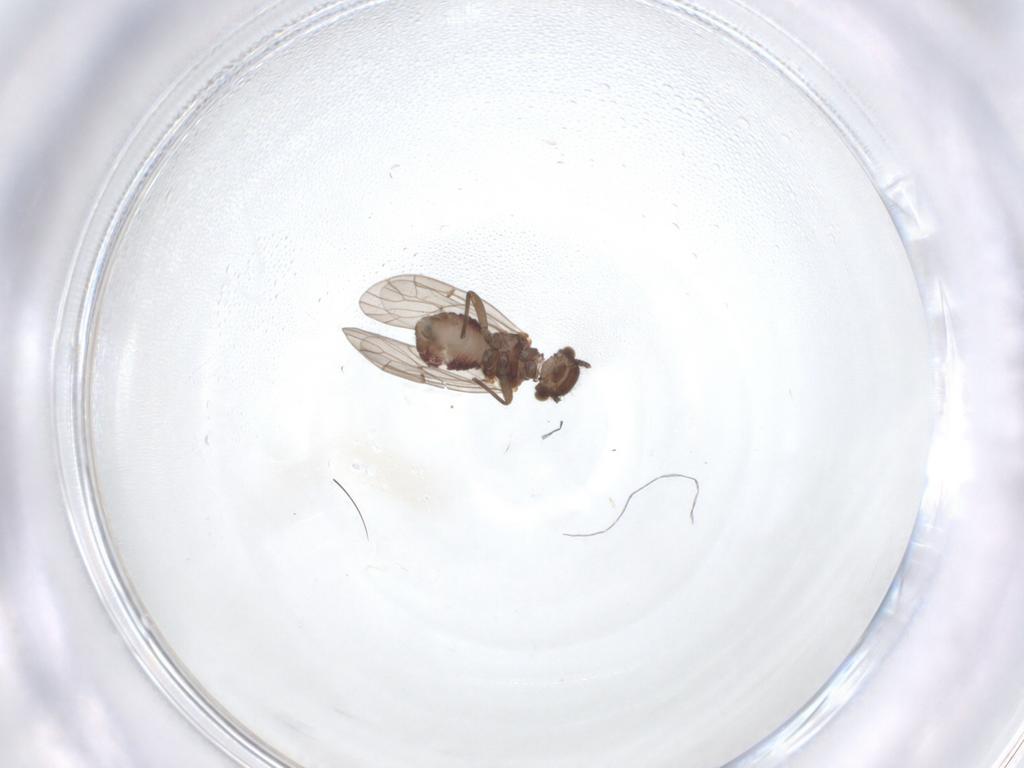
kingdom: Animalia
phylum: Arthropoda
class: Insecta
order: Psocodea
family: Ectopsocidae
